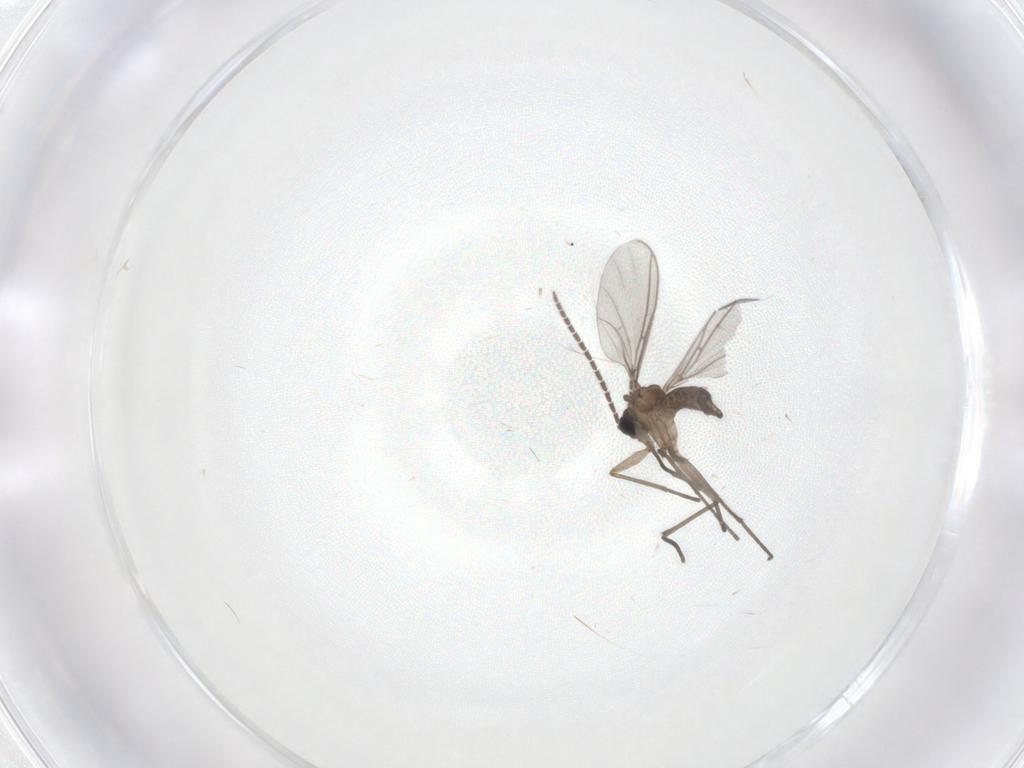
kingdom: Animalia
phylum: Arthropoda
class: Insecta
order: Diptera
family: Sciaridae
